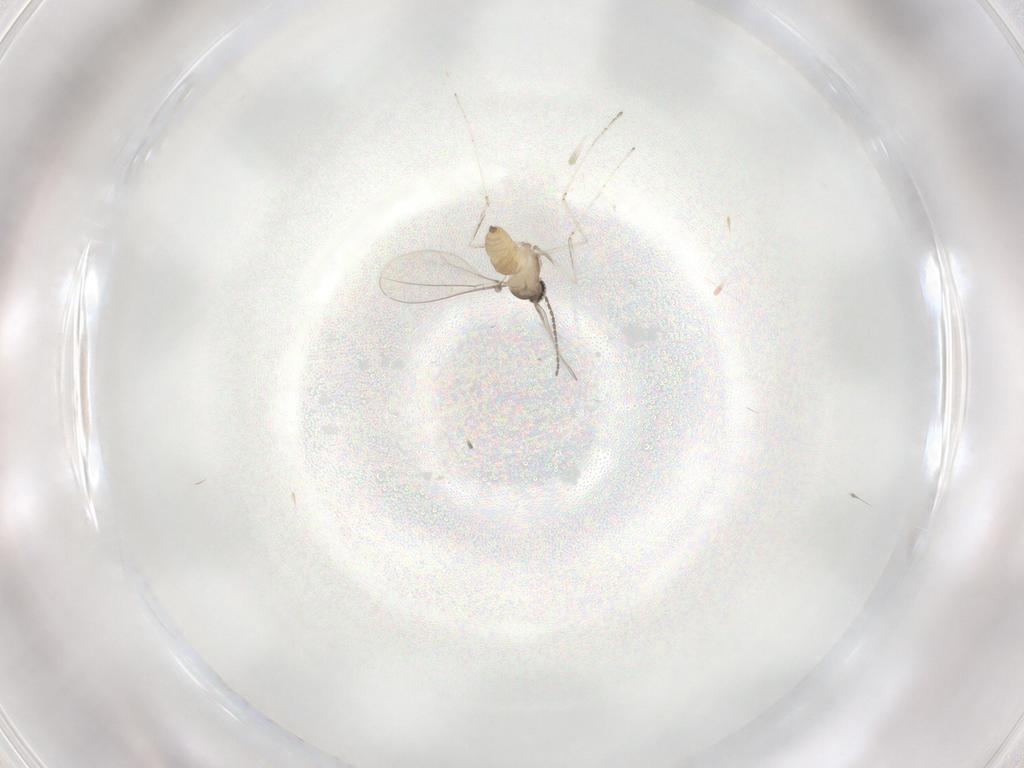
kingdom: Animalia
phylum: Arthropoda
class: Insecta
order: Diptera
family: Cecidomyiidae
